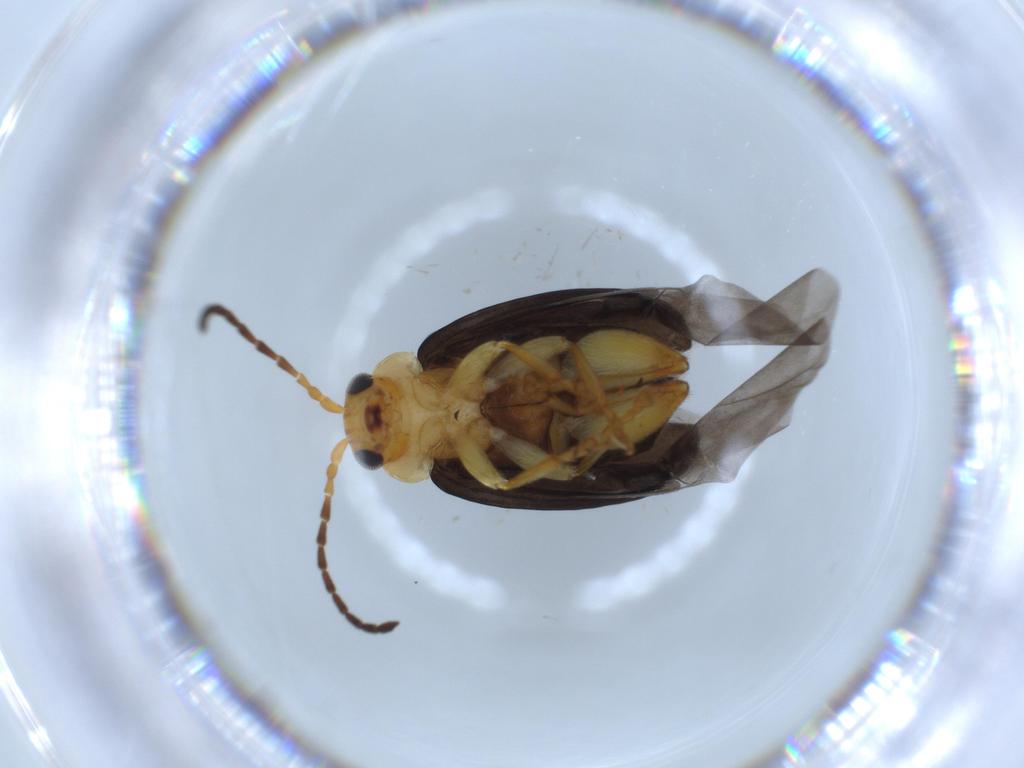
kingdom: Animalia
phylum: Arthropoda
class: Insecta
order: Coleoptera
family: Chrysomelidae
